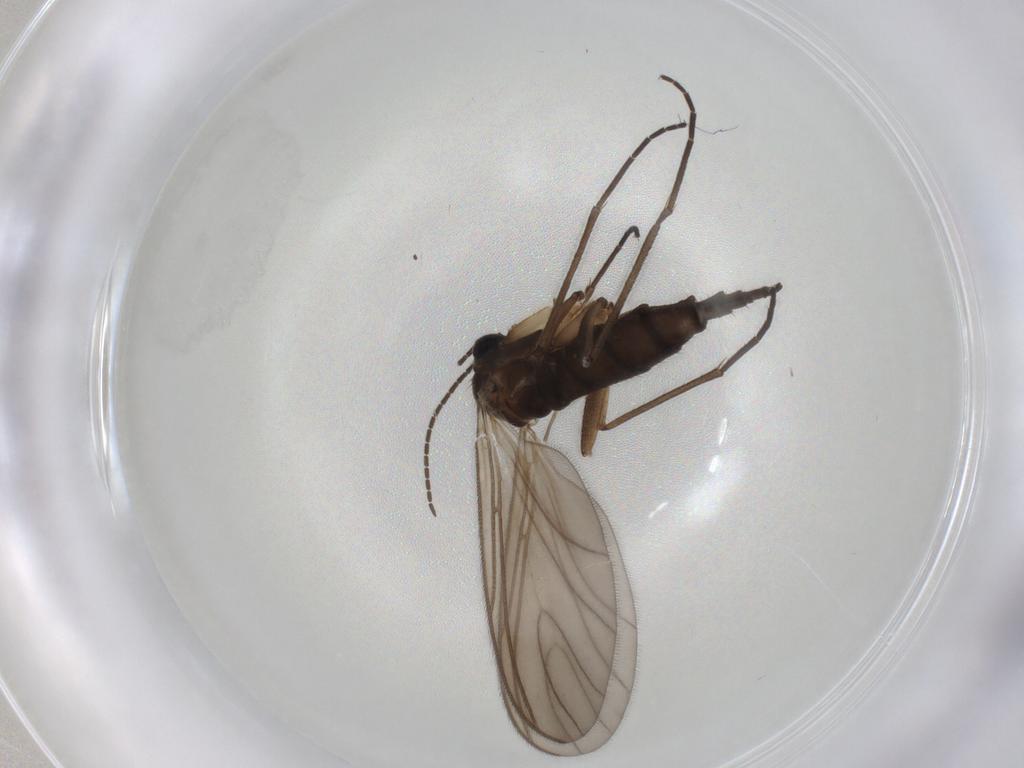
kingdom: Animalia
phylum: Arthropoda
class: Insecta
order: Diptera
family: Sciaridae
